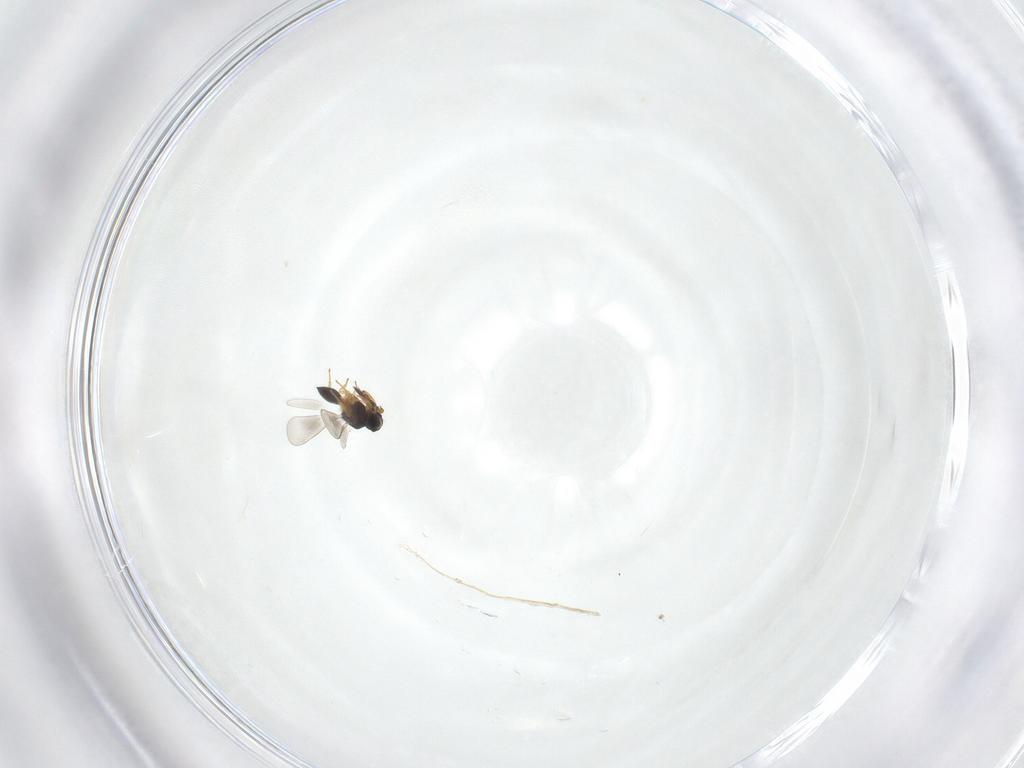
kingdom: Animalia
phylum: Arthropoda
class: Insecta
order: Hymenoptera
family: Platygastridae
